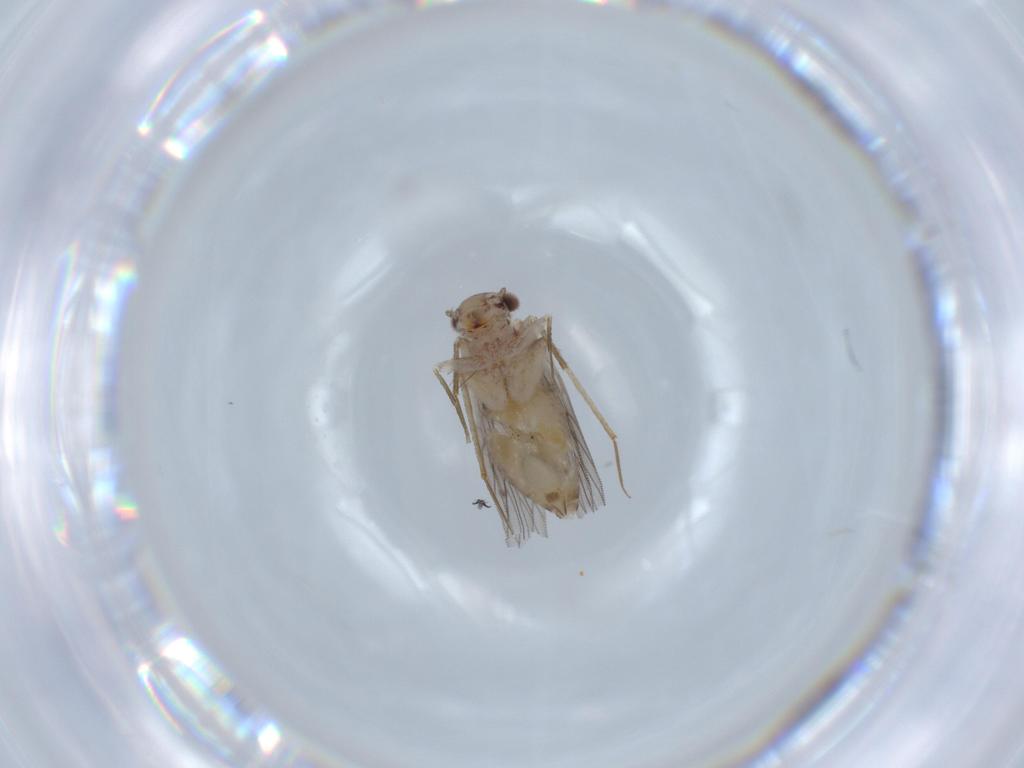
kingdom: Animalia
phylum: Arthropoda
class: Insecta
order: Psocodea
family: Lepidopsocidae
